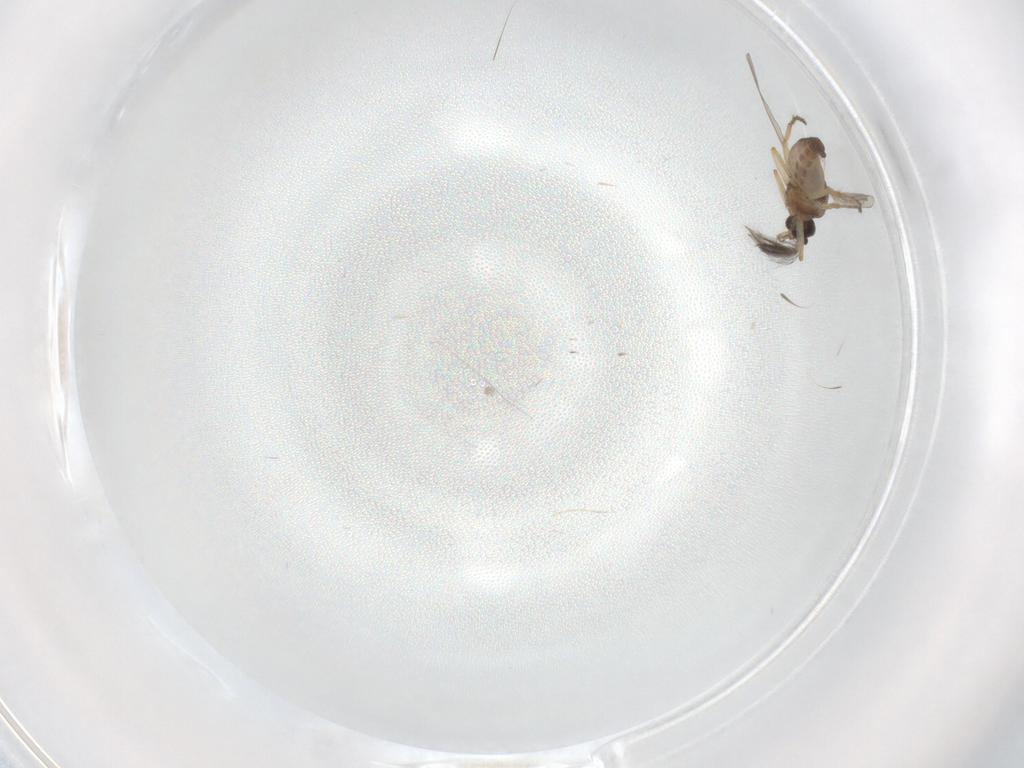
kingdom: Animalia
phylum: Arthropoda
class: Insecta
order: Diptera
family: Ceratopogonidae
